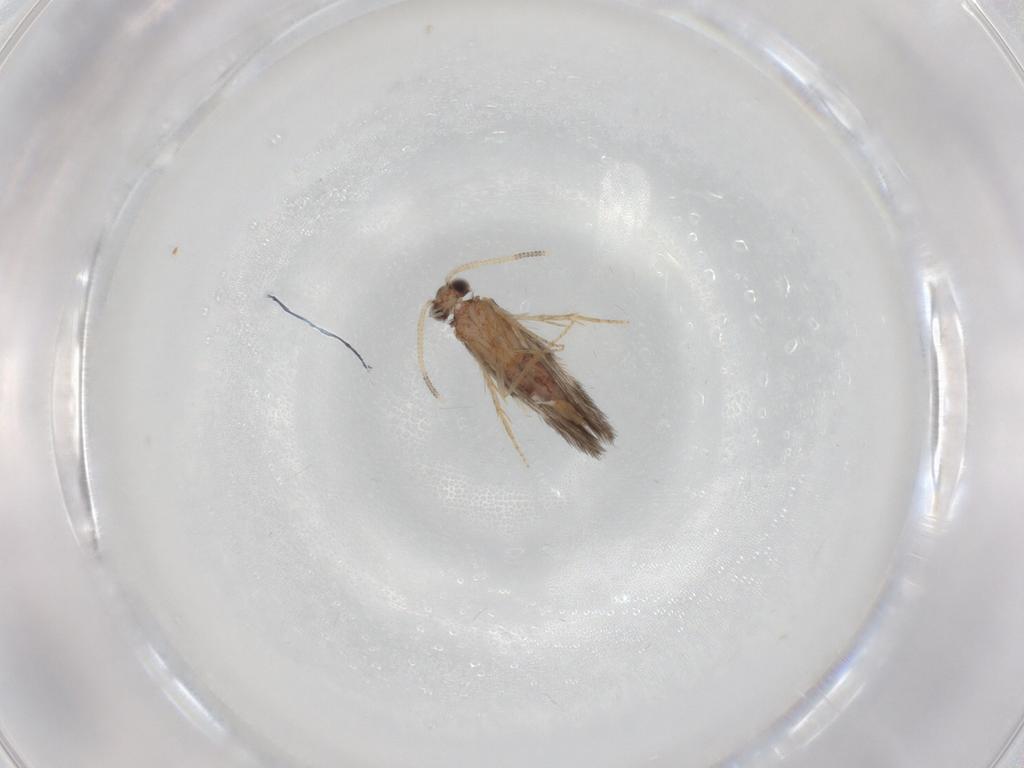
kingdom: Animalia
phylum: Arthropoda
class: Insecta
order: Trichoptera
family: Hydroptilidae
